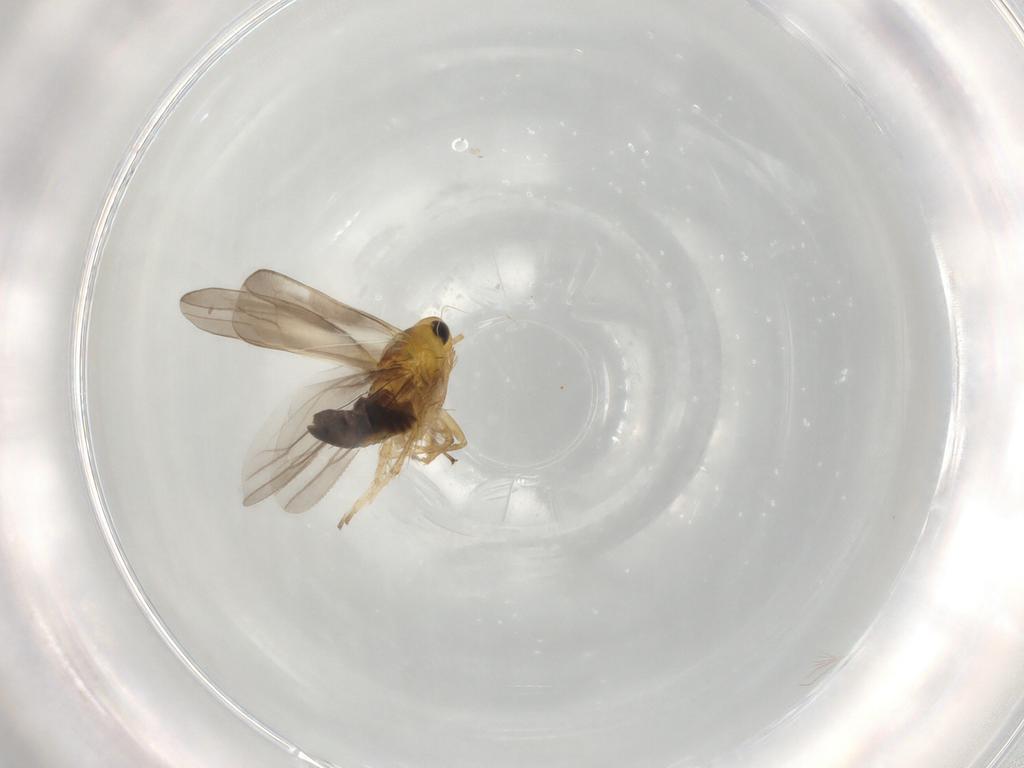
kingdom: Animalia
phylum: Arthropoda
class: Insecta
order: Hemiptera
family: Cicadellidae
